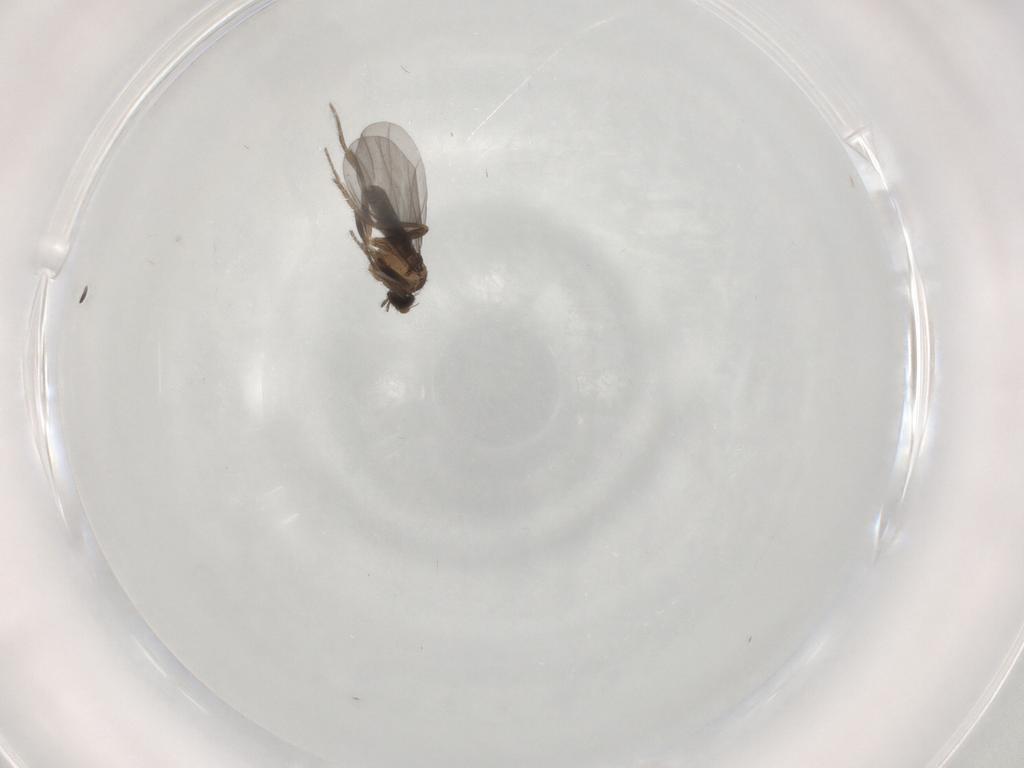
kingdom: Animalia
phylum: Arthropoda
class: Insecta
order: Diptera
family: Phoridae
